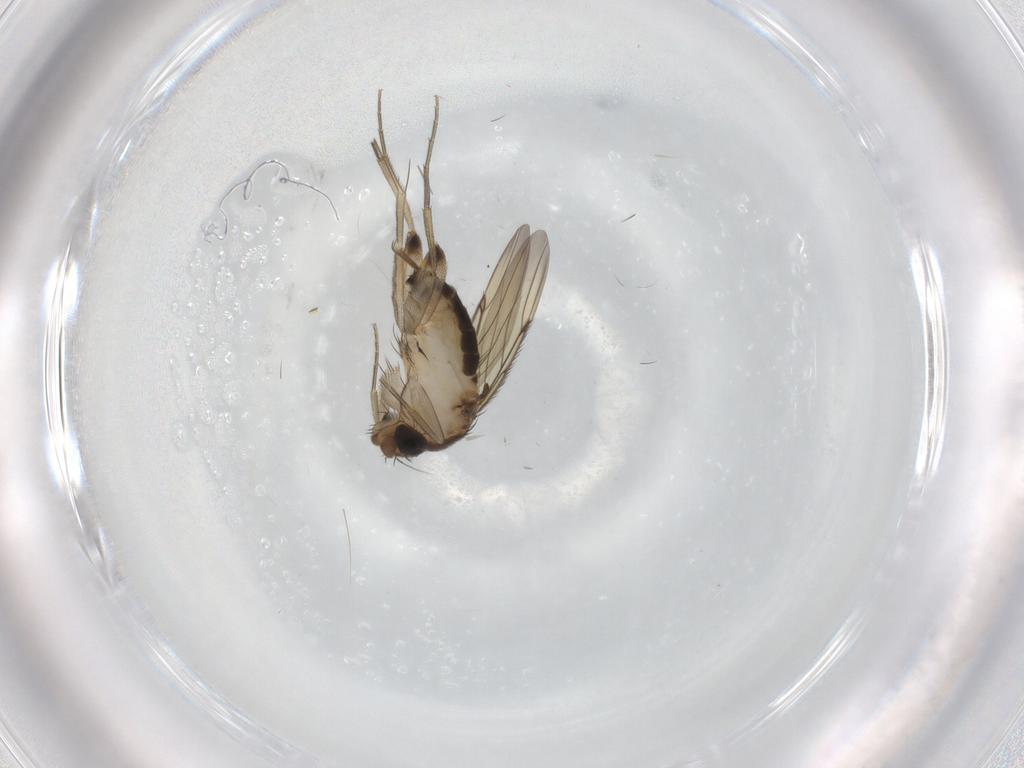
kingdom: Animalia
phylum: Arthropoda
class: Insecta
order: Diptera
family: Phoridae
